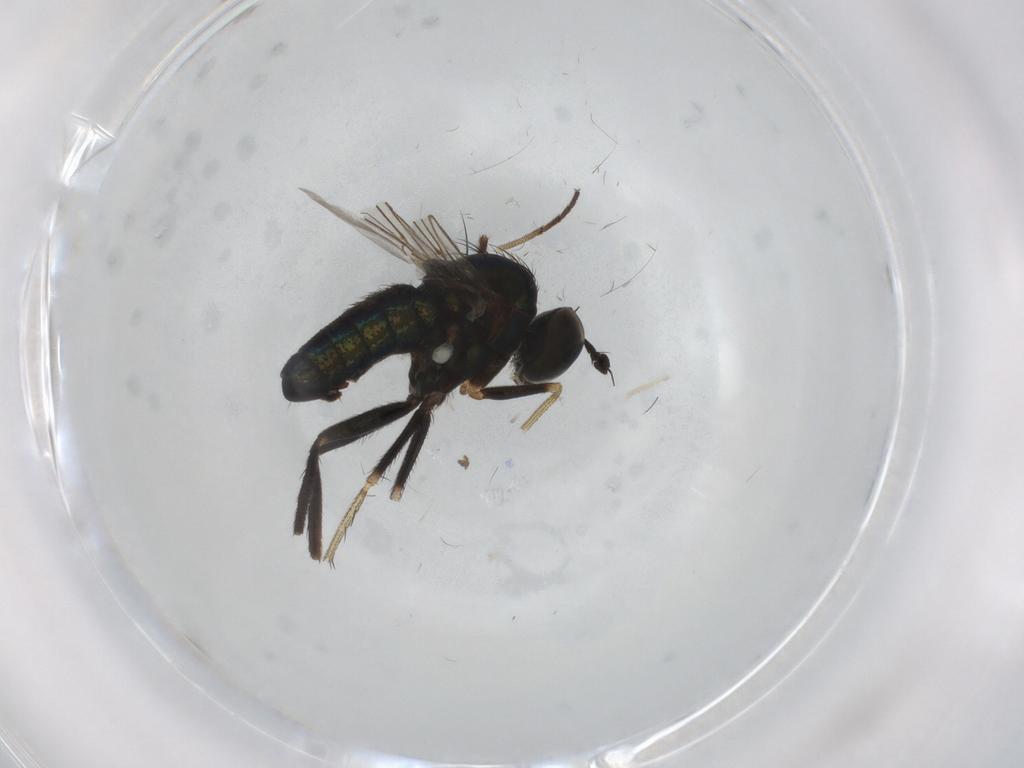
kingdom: Animalia
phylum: Arthropoda
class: Insecta
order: Diptera
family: Dolichopodidae
